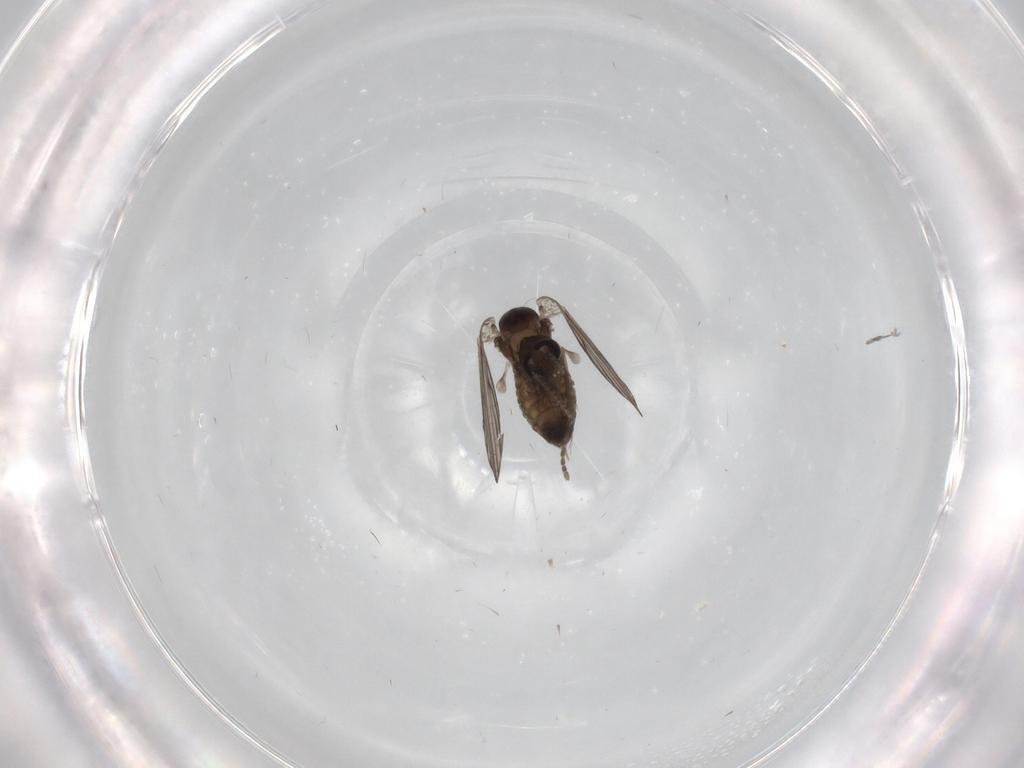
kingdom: Animalia
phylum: Arthropoda
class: Insecta
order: Diptera
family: Psychodidae
